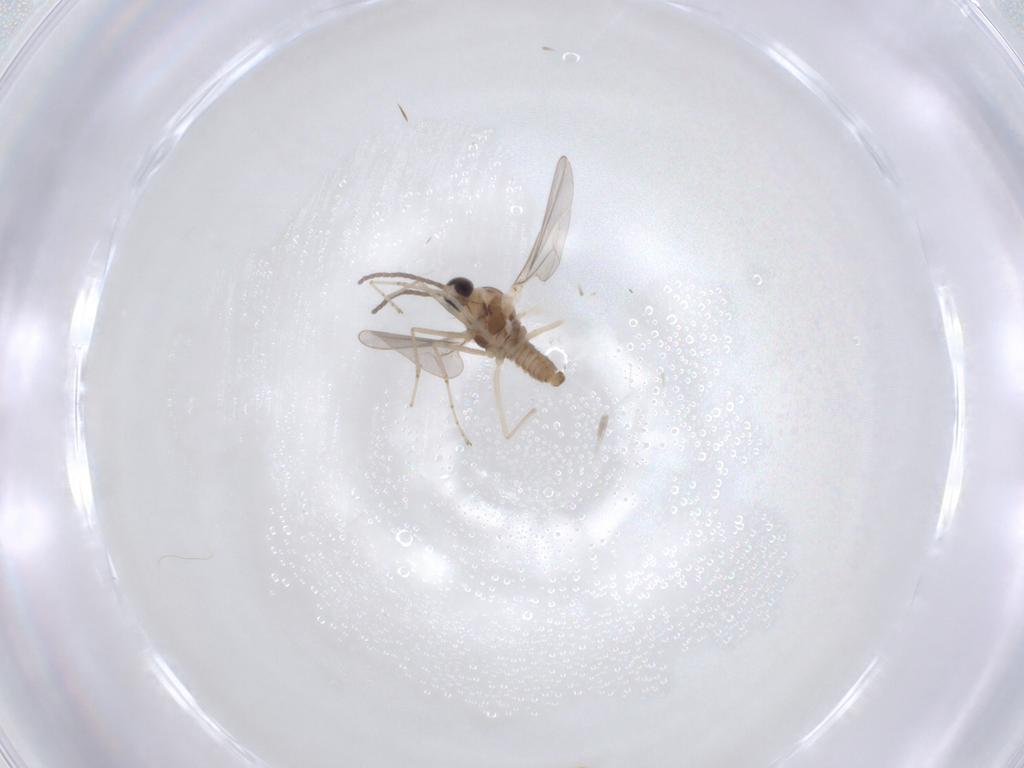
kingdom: Animalia
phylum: Arthropoda
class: Insecta
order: Diptera
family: Cecidomyiidae
